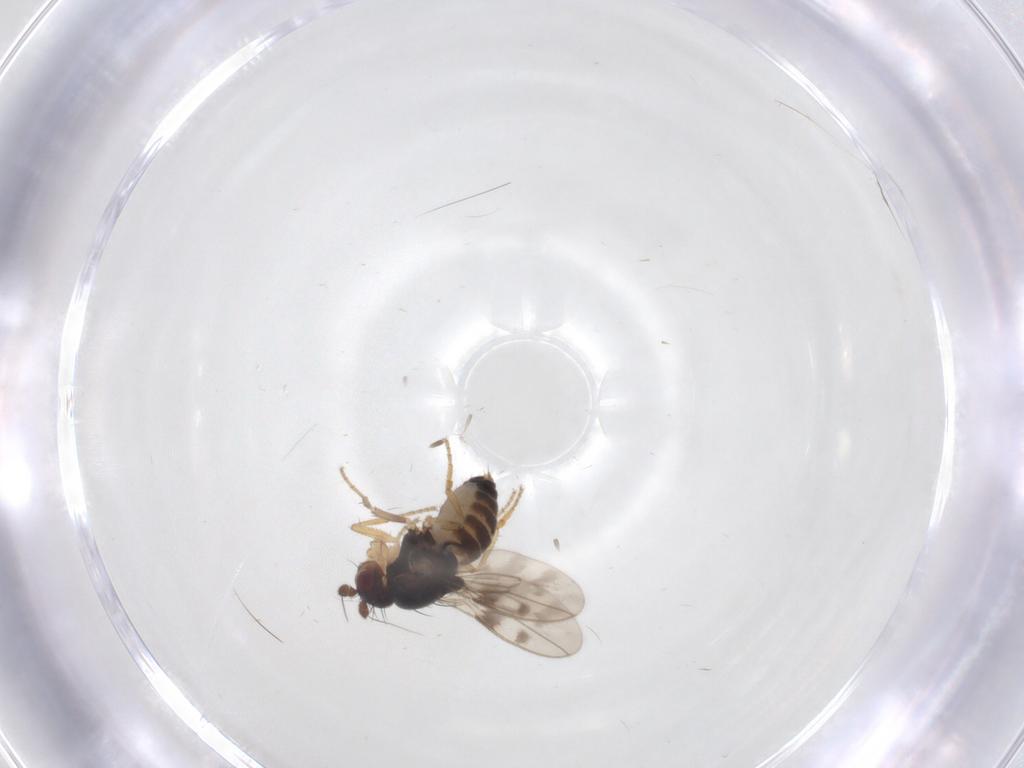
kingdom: Animalia
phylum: Arthropoda
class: Insecta
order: Diptera
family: Sphaeroceridae
